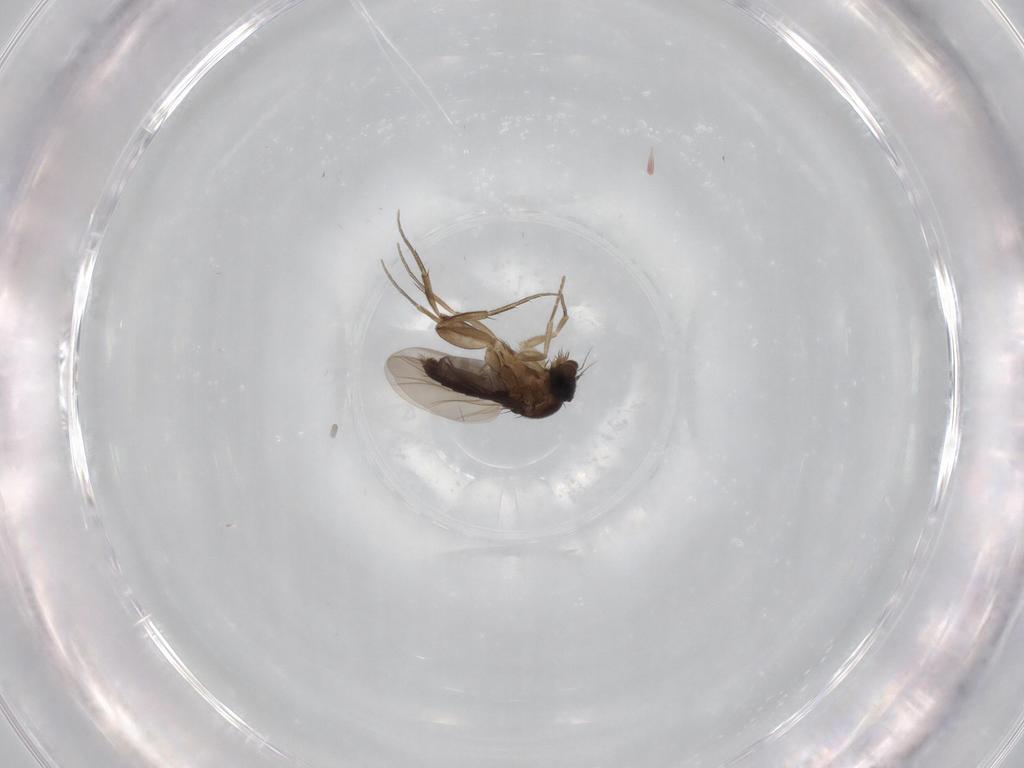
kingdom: Animalia
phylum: Arthropoda
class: Insecta
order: Diptera
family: Phoridae
